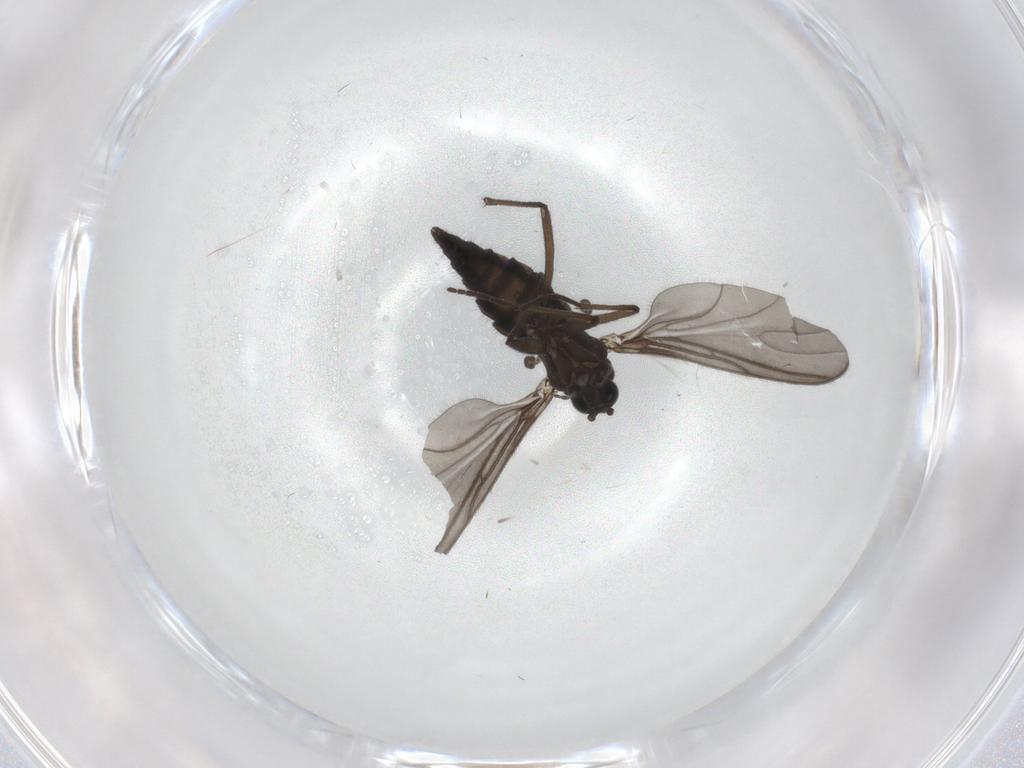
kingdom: Animalia
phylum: Arthropoda
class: Insecta
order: Diptera
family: Sciaridae
